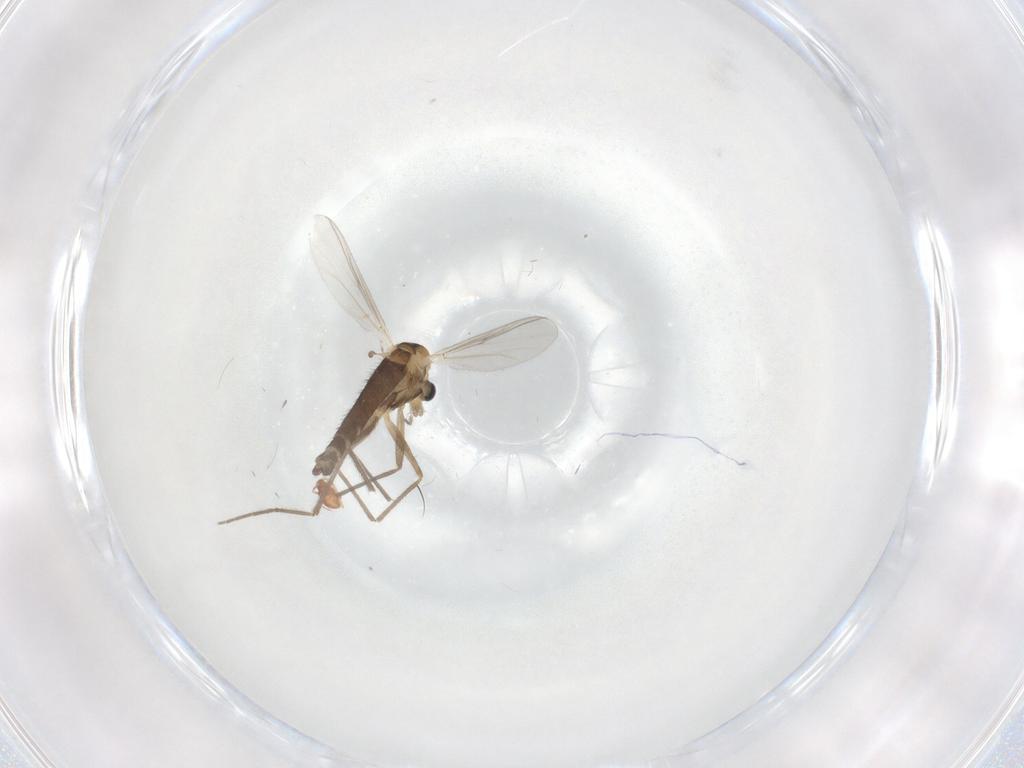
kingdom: Animalia
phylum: Arthropoda
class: Insecta
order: Diptera
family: Chironomidae
